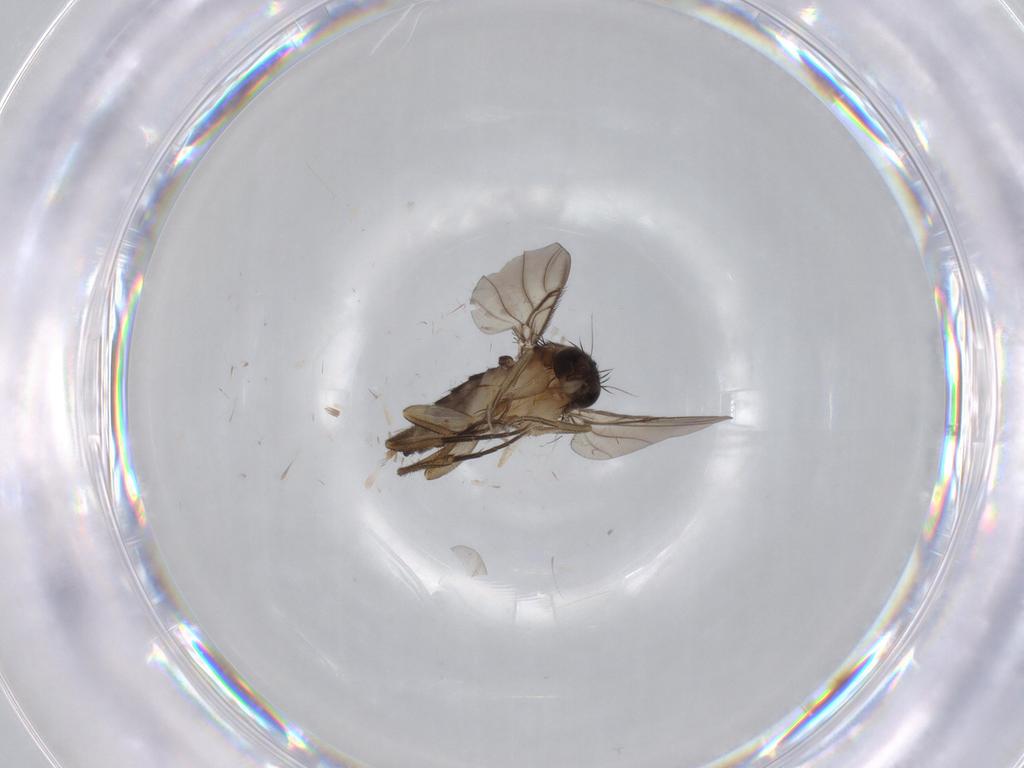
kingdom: Animalia
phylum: Arthropoda
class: Insecta
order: Diptera
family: Phoridae
